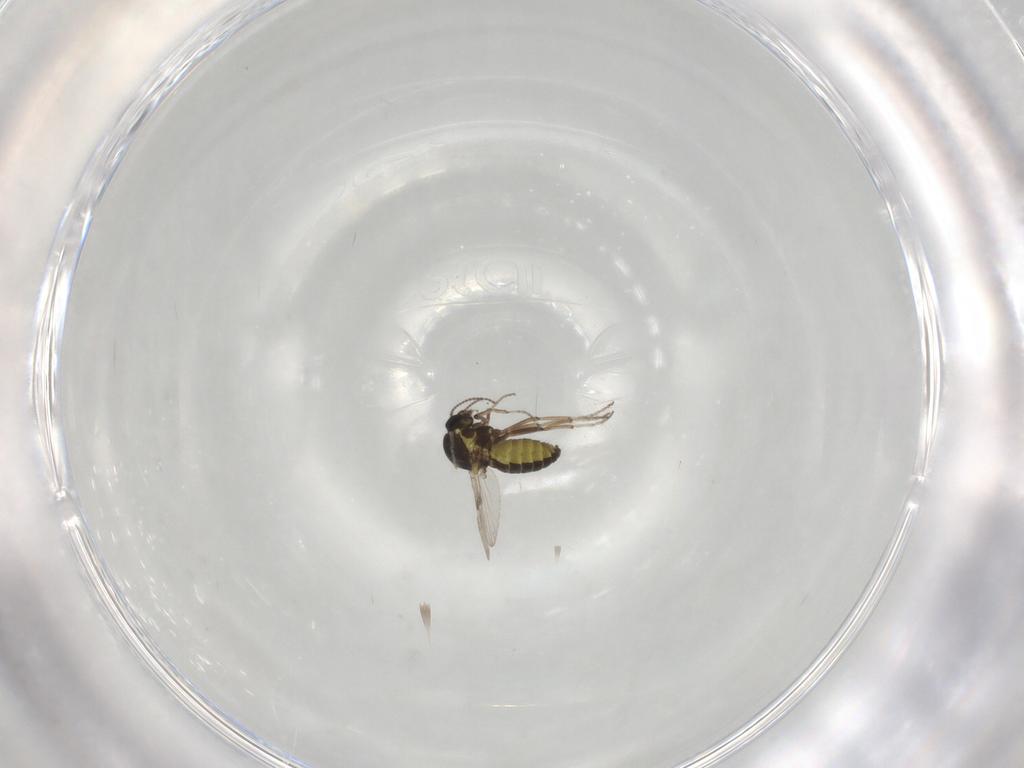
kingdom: Animalia
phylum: Arthropoda
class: Insecta
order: Diptera
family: Ceratopogonidae
